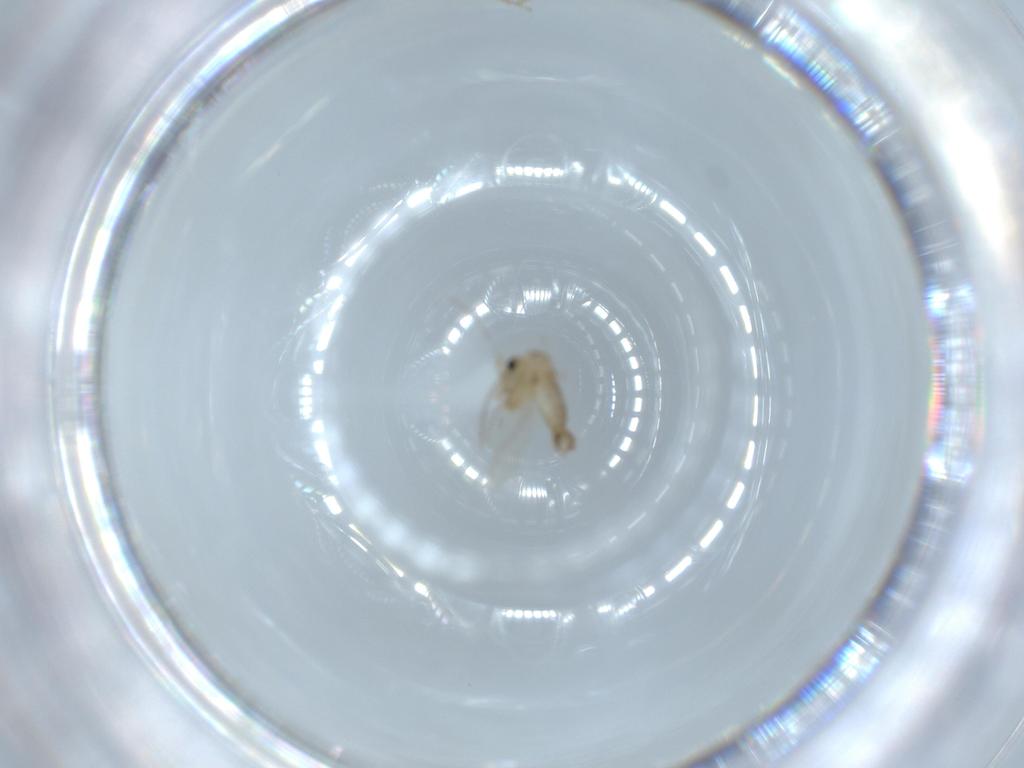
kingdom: Animalia
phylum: Arthropoda
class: Insecta
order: Diptera
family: Psychodidae
